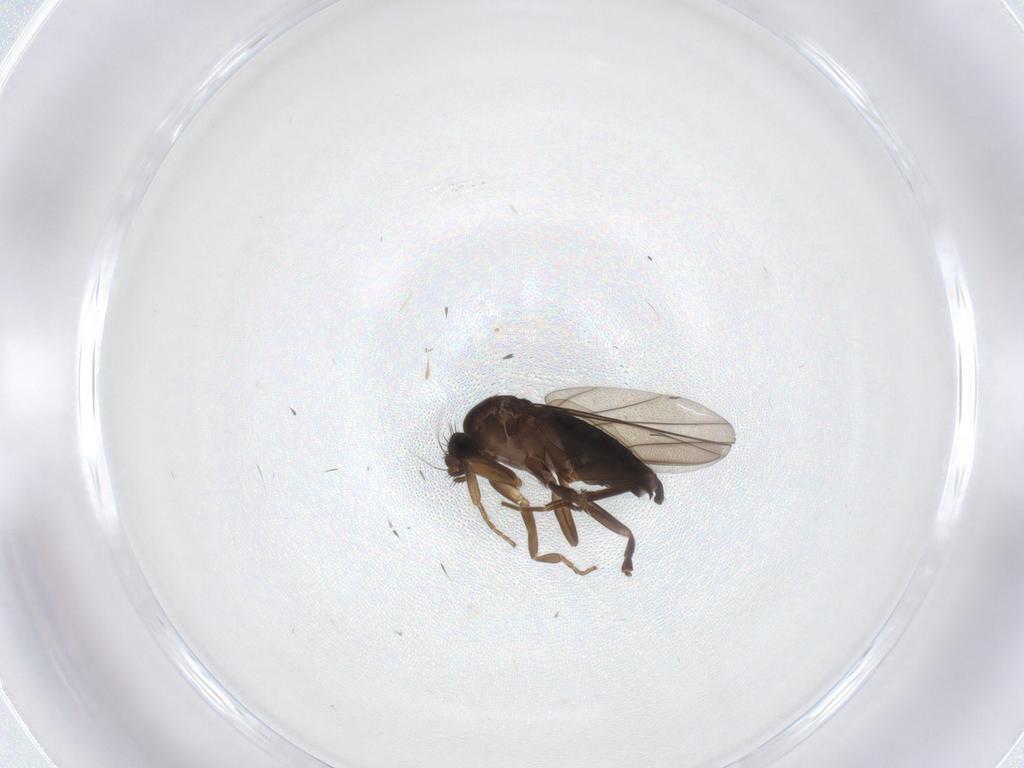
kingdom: Animalia
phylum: Arthropoda
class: Insecta
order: Diptera
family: Phoridae
